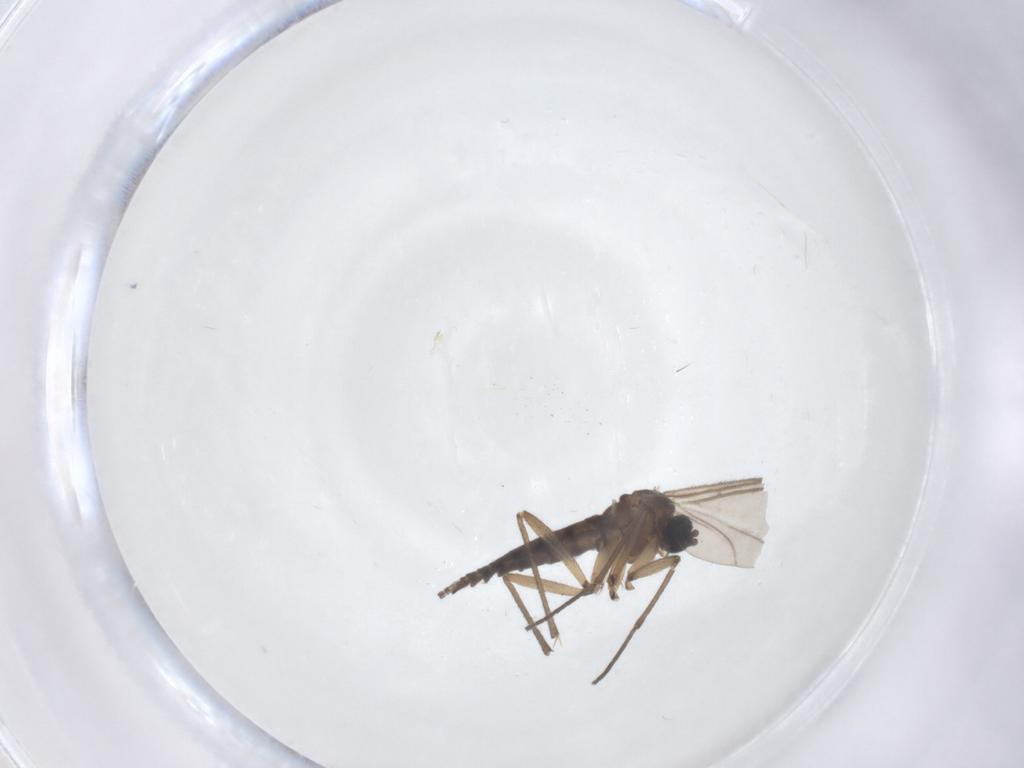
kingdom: Animalia
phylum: Arthropoda
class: Insecta
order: Diptera
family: Sciaridae
